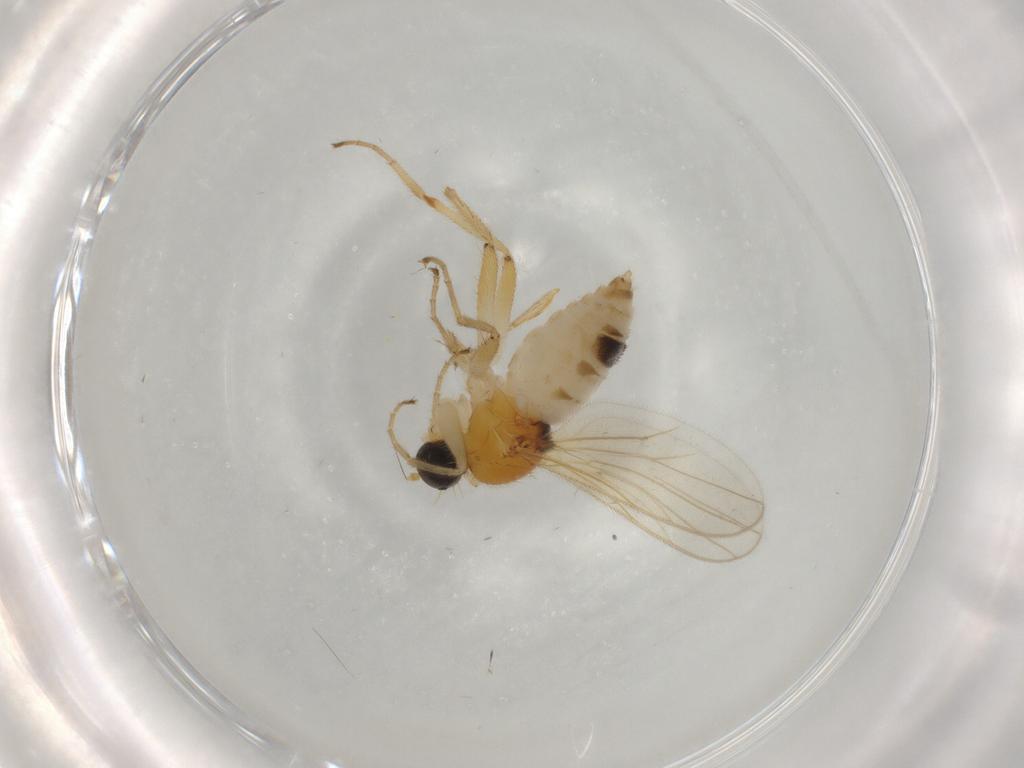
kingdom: Animalia
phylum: Arthropoda
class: Insecta
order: Diptera
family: Hybotidae
